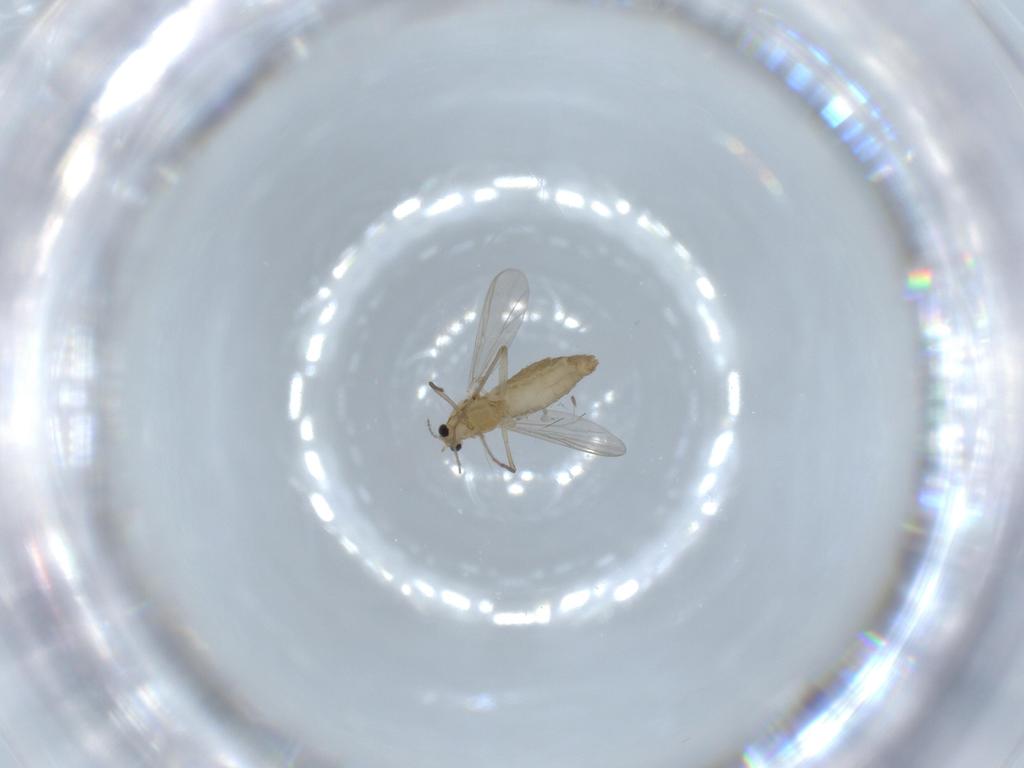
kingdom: Animalia
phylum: Arthropoda
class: Insecta
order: Diptera
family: Chironomidae
